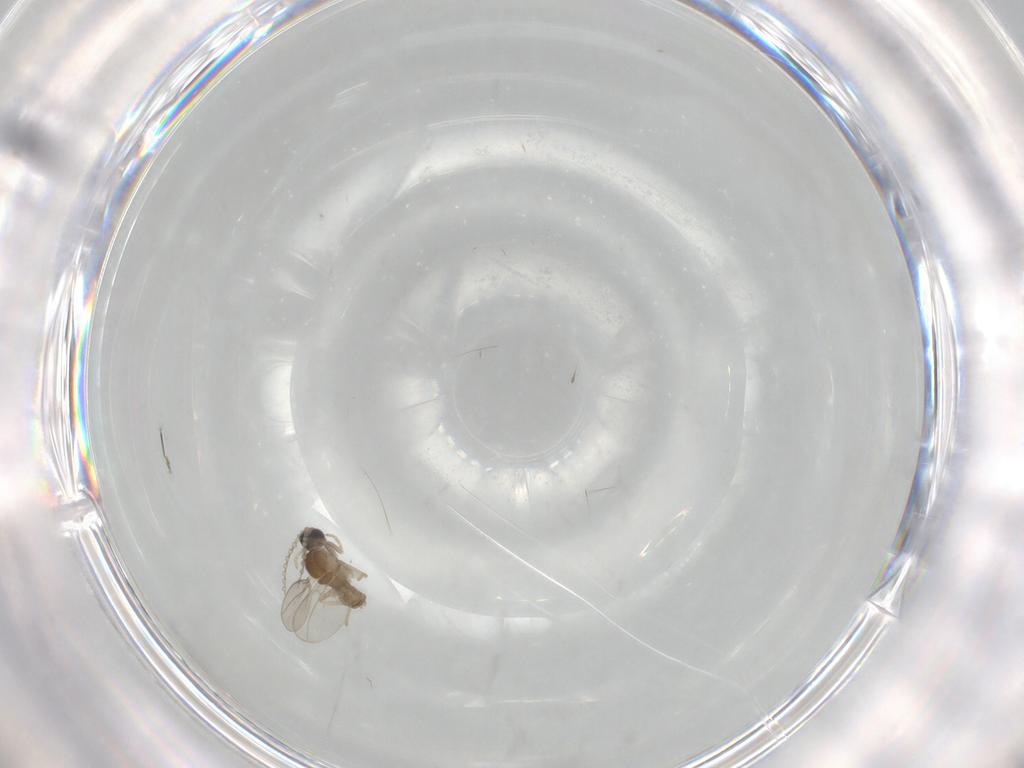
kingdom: Animalia
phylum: Arthropoda
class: Insecta
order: Diptera
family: Cecidomyiidae
